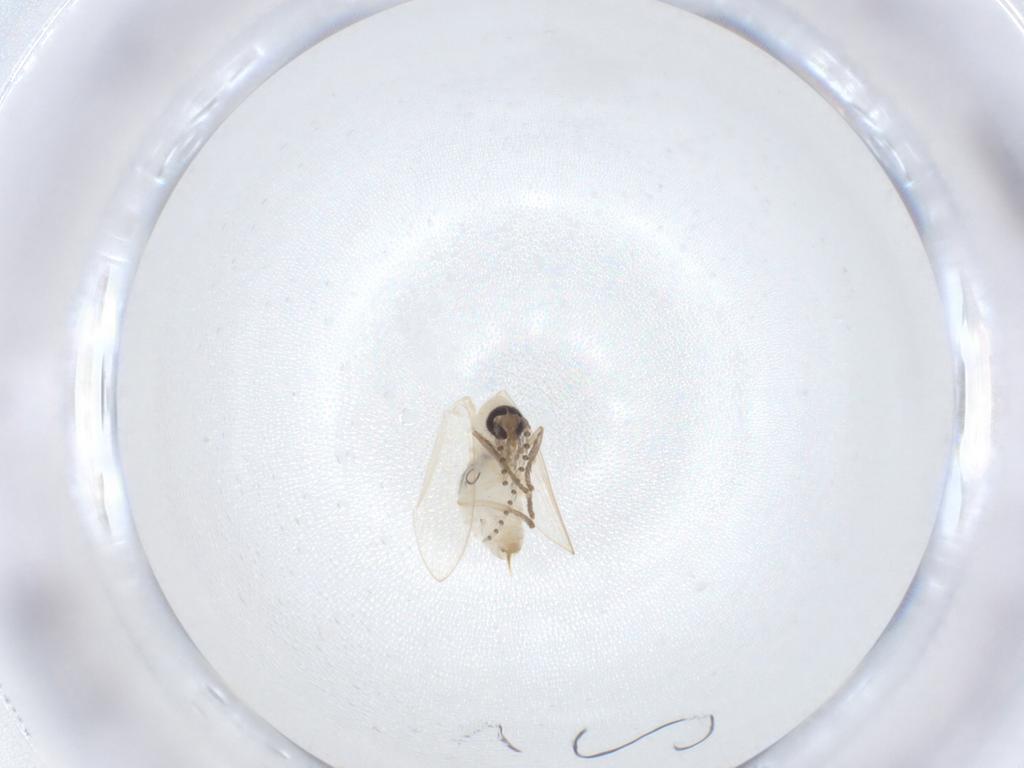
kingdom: Animalia
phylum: Arthropoda
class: Insecta
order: Diptera
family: Psychodidae
